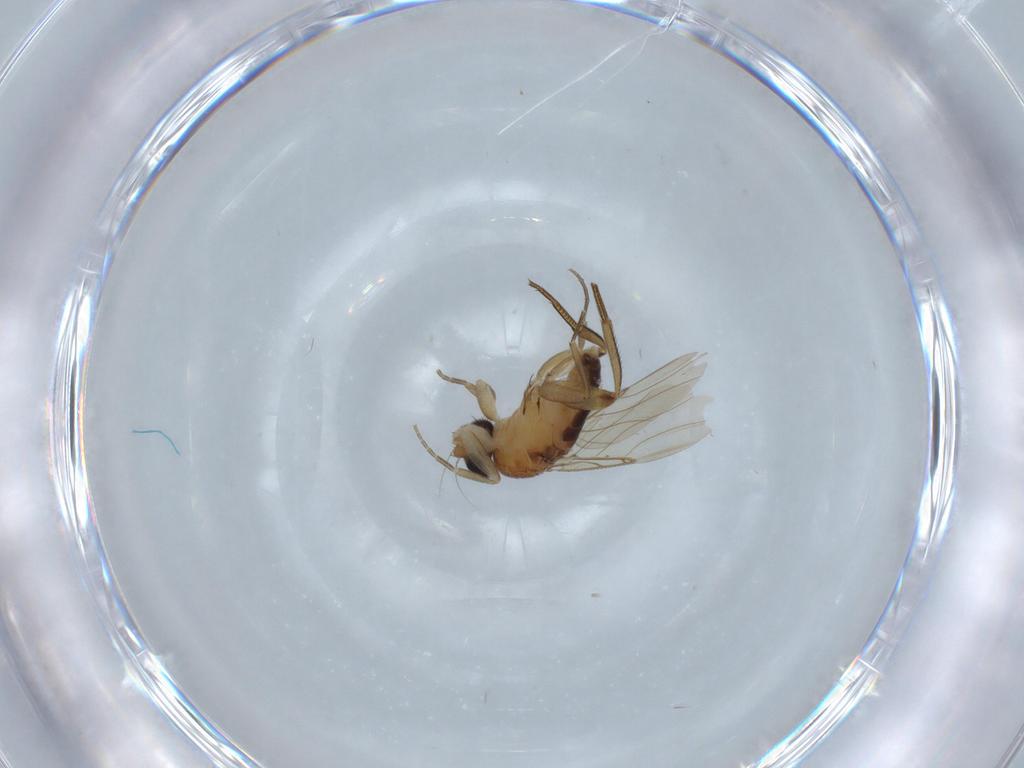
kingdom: Animalia
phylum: Arthropoda
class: Insecta
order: Diptera
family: Phoridae
